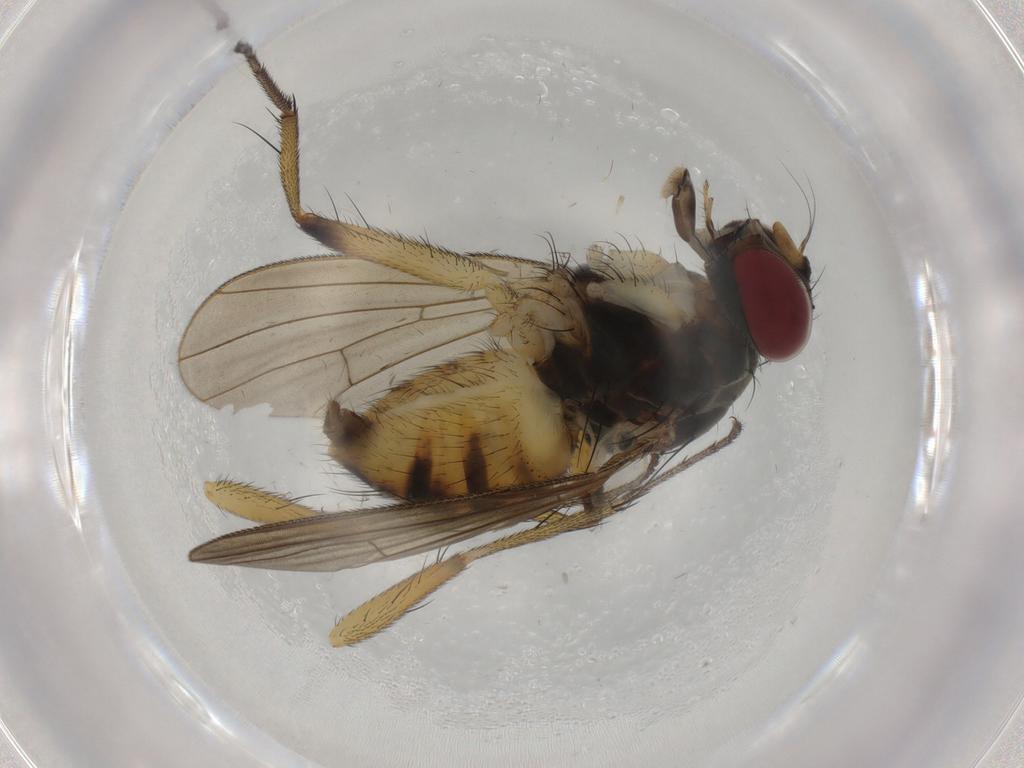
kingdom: Animalia
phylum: Arthropoda
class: Insecta
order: Diptera
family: Muscidae
